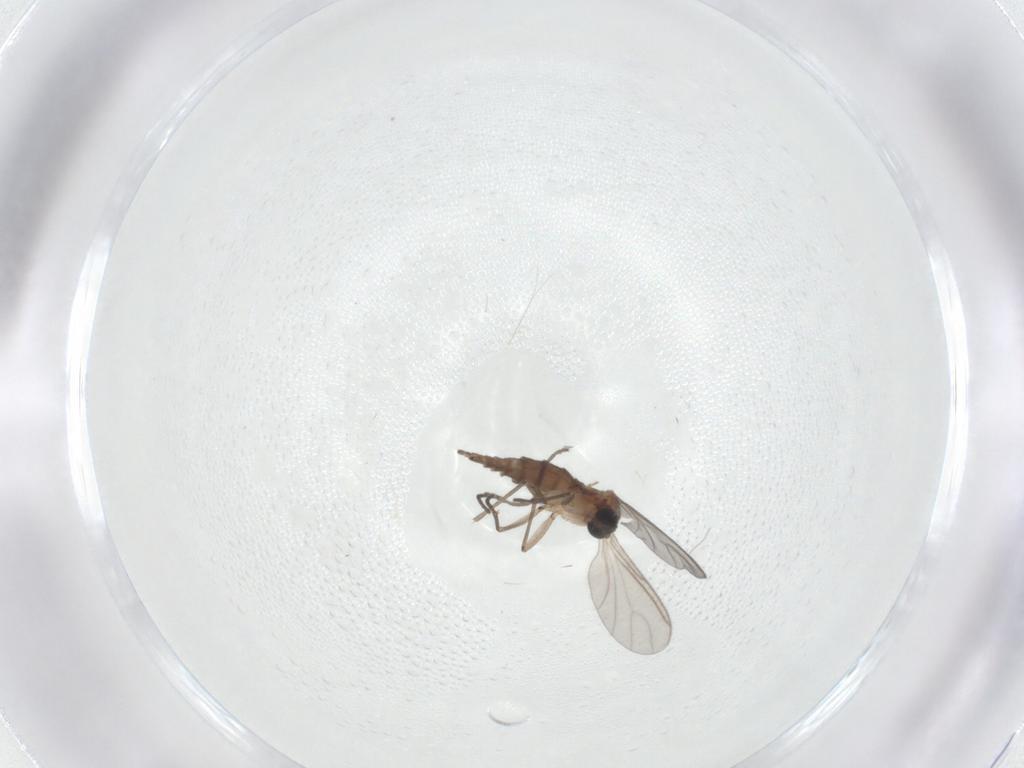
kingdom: Animalia
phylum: Arthropoda
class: Insecta
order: Diptera
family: Sciaridae
